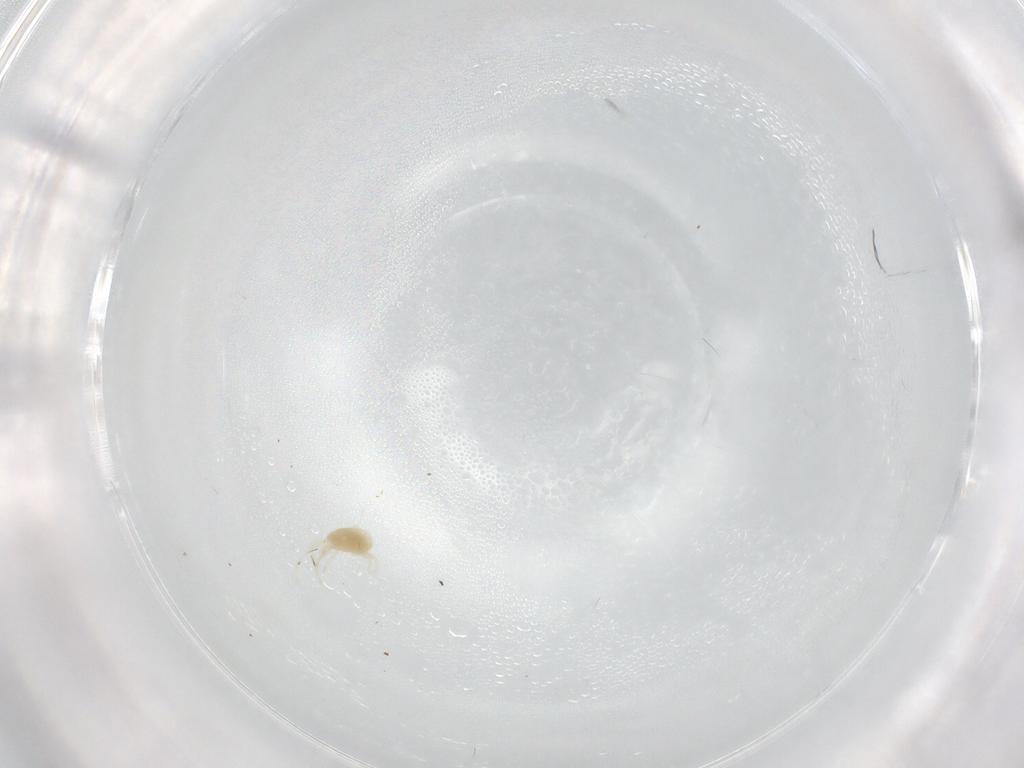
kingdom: Animalia
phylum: Arthropoda
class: Arachnida
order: Trombidiformes
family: Eupodidae
